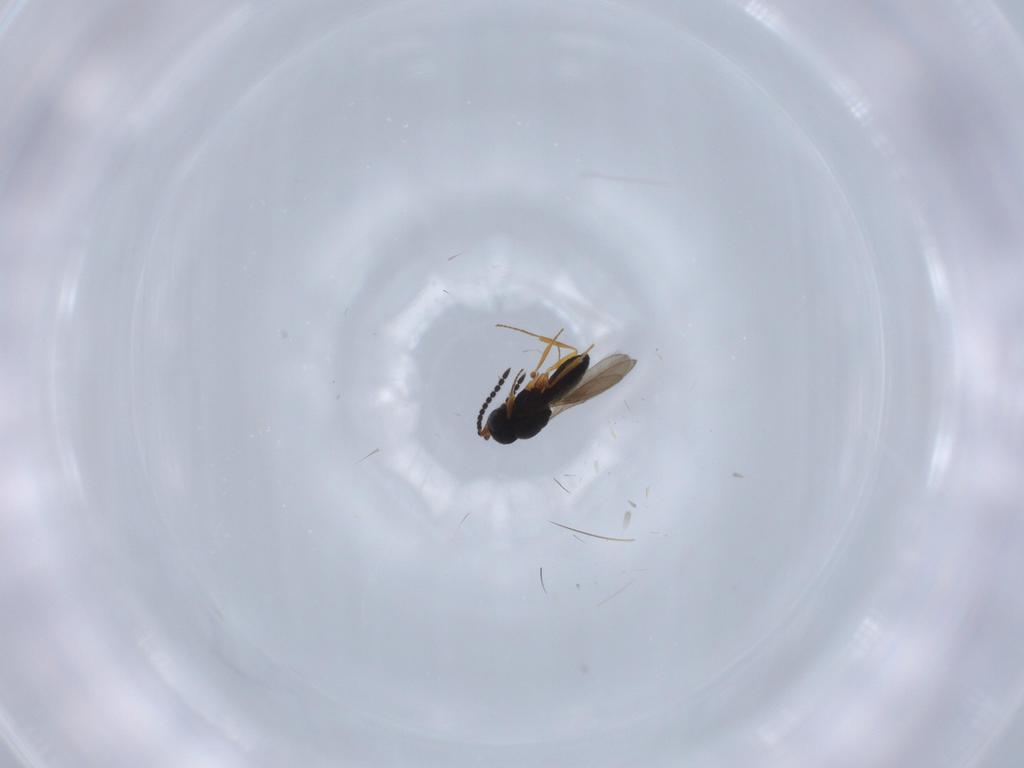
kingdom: Animalia
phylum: Arthropoda
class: Insecta
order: Hymenoptera
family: Scelionidae
